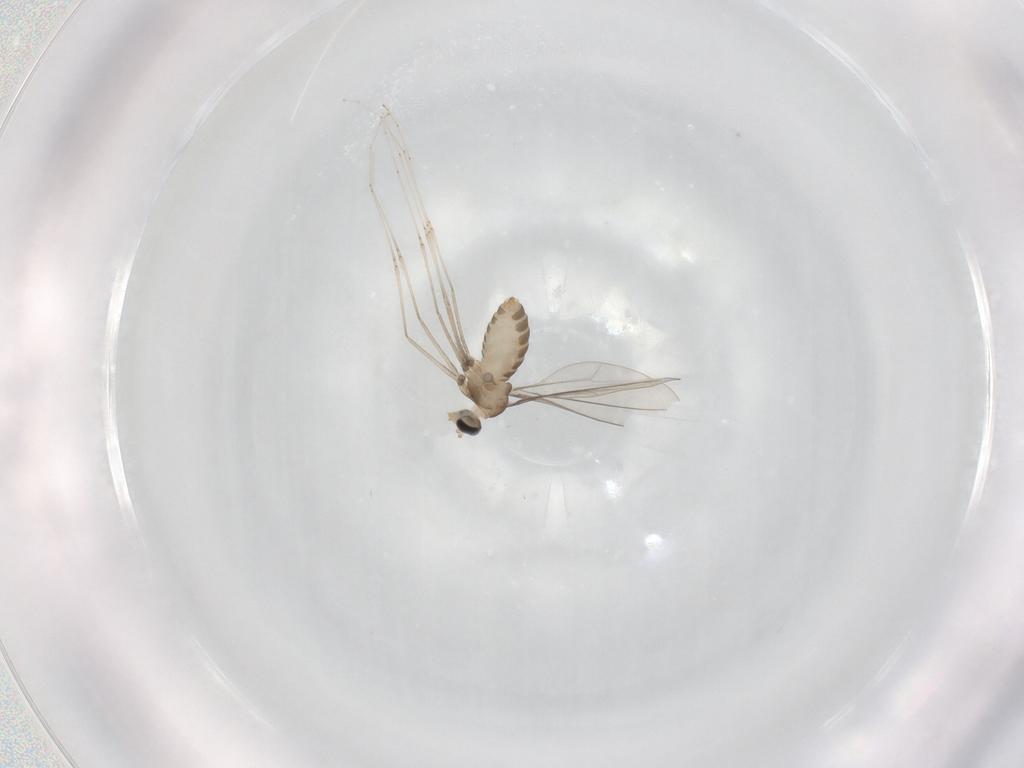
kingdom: Animalia
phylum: Arthropoda
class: Insecta
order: Diptera
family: Cecidomyiidae
